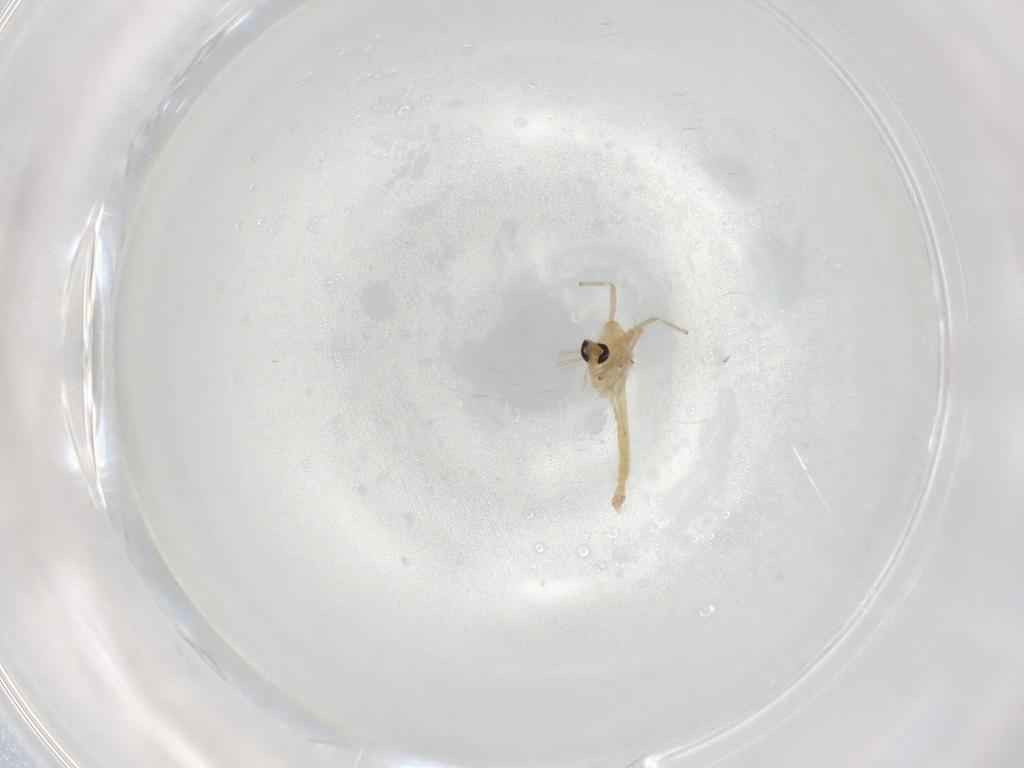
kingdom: Animalia
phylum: Arthropoda
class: Insecta
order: Diptera
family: Chironomidae
